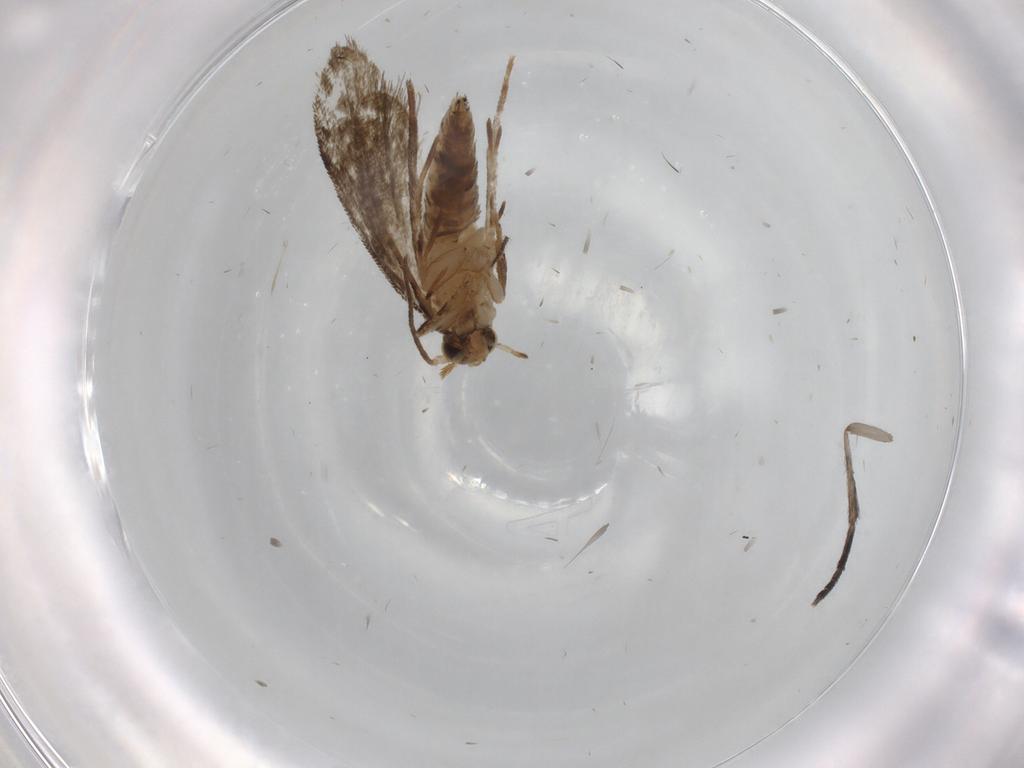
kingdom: Animalia
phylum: Arthropoda
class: Insecta
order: Lepidoptera
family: Crambidae
